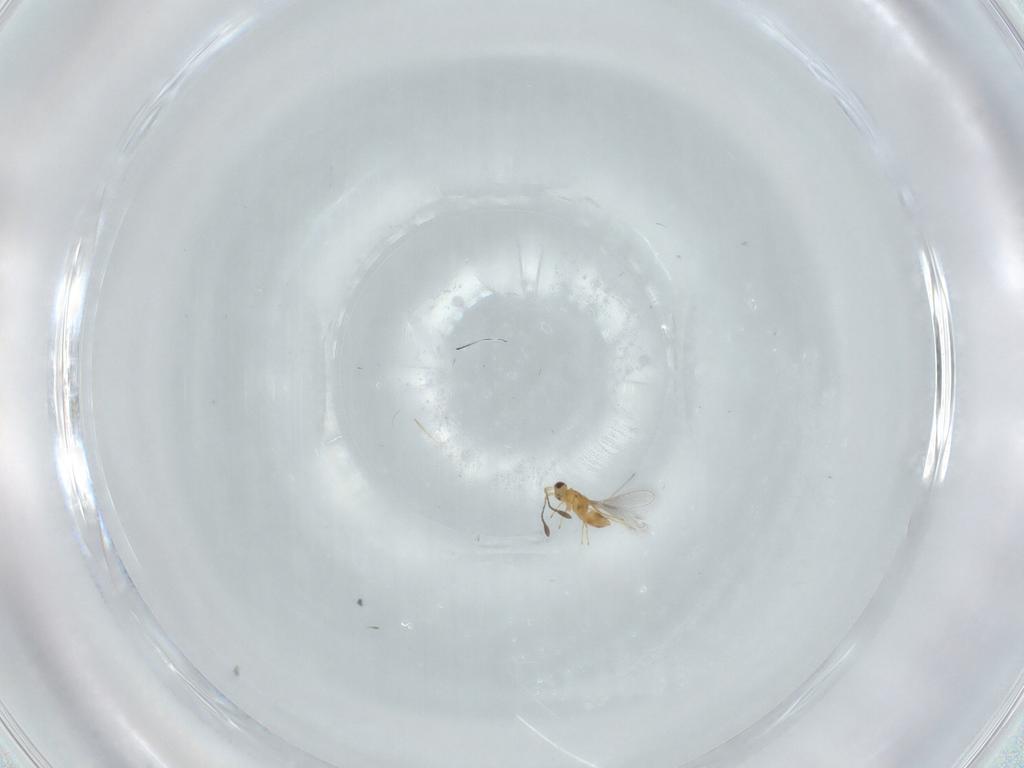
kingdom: Animalia
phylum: Arthropoda
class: Insecta
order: Hymenoptera
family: Mymaridae
